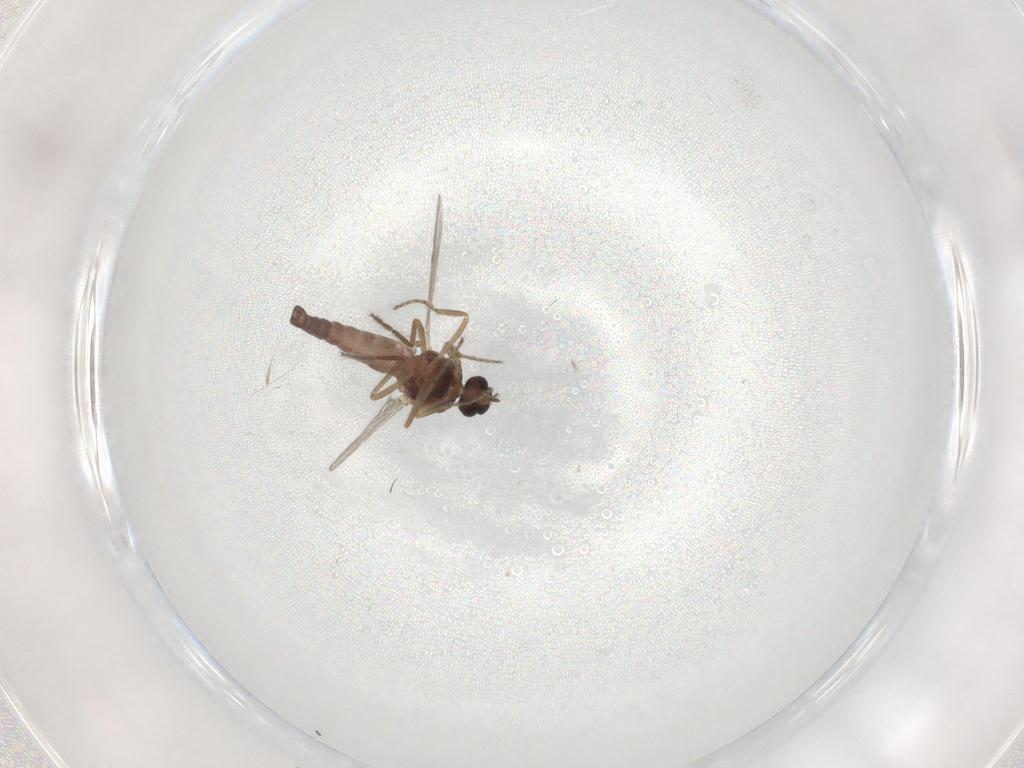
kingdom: Animalia
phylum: Arthropoda
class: Insecta
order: Diptera
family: Ceratopogonidae
